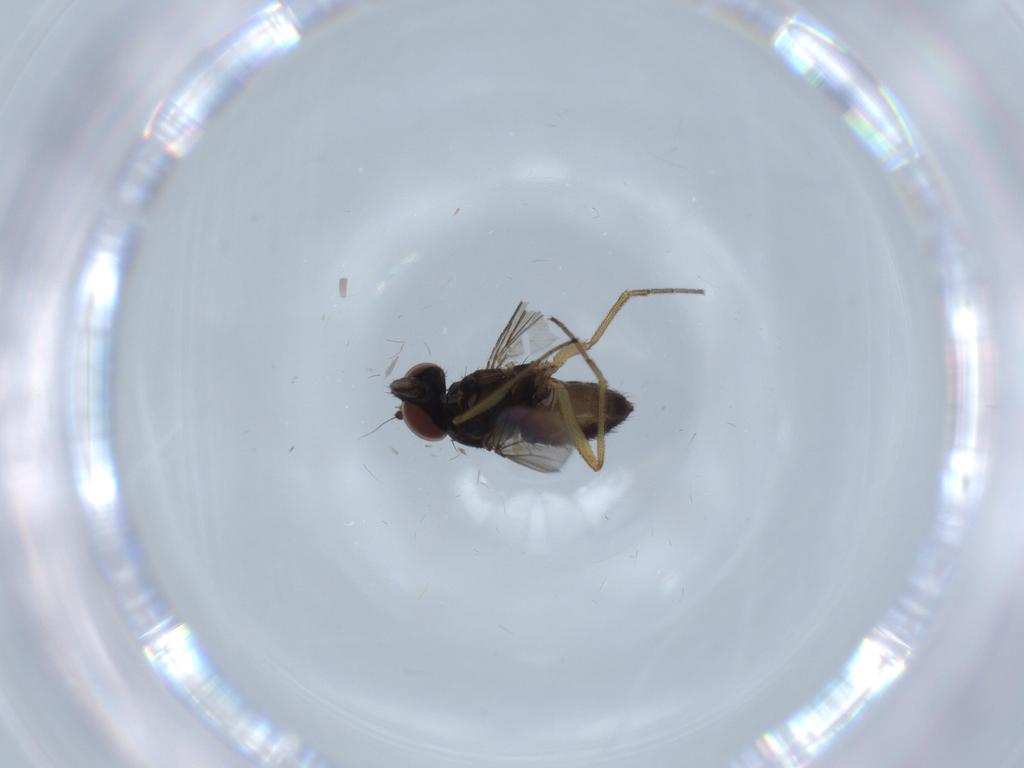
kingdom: Animalia
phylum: Arthropoda
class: Insecta
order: Diptera
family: Dolichopodidae
